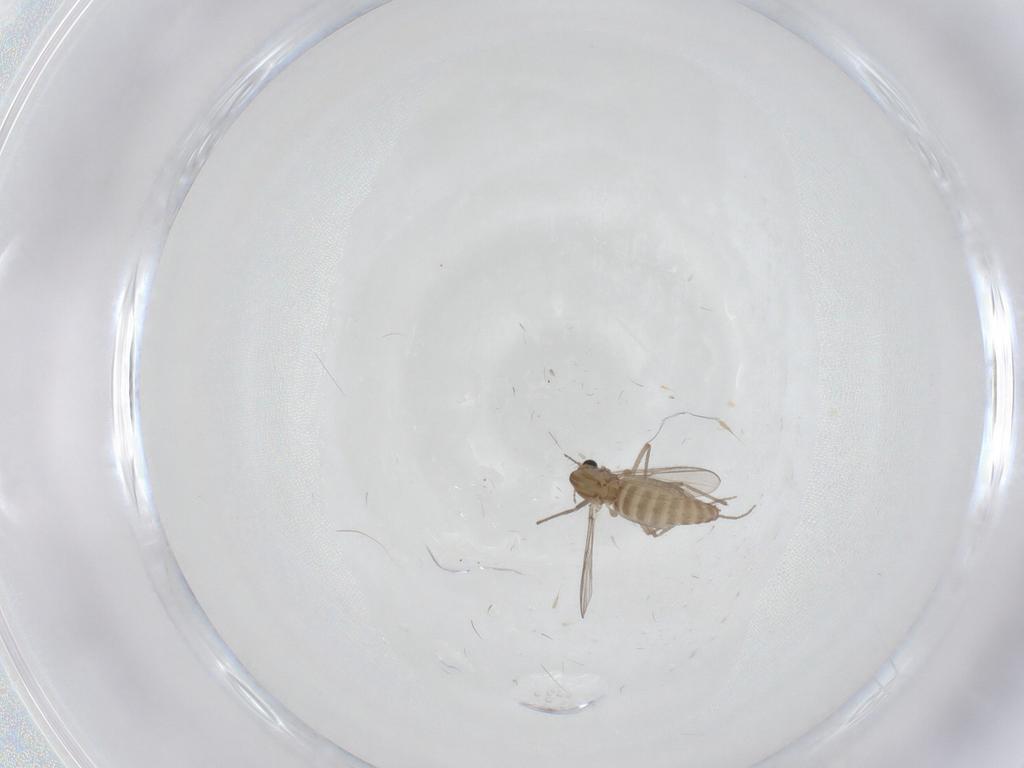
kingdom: Animalia
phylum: Arthropoda
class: Insecta
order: Diptera
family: Chironomidae
